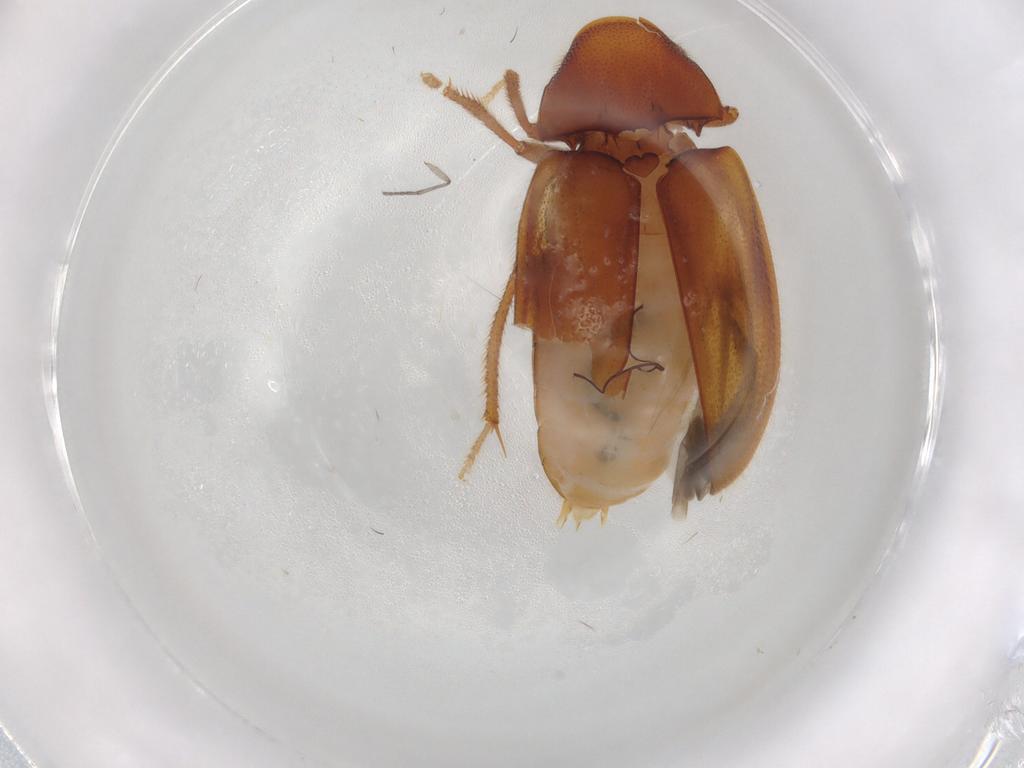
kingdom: Animalia
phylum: Arthropoda
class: Insecta
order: Coleoptera
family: Ptilodactylidae
